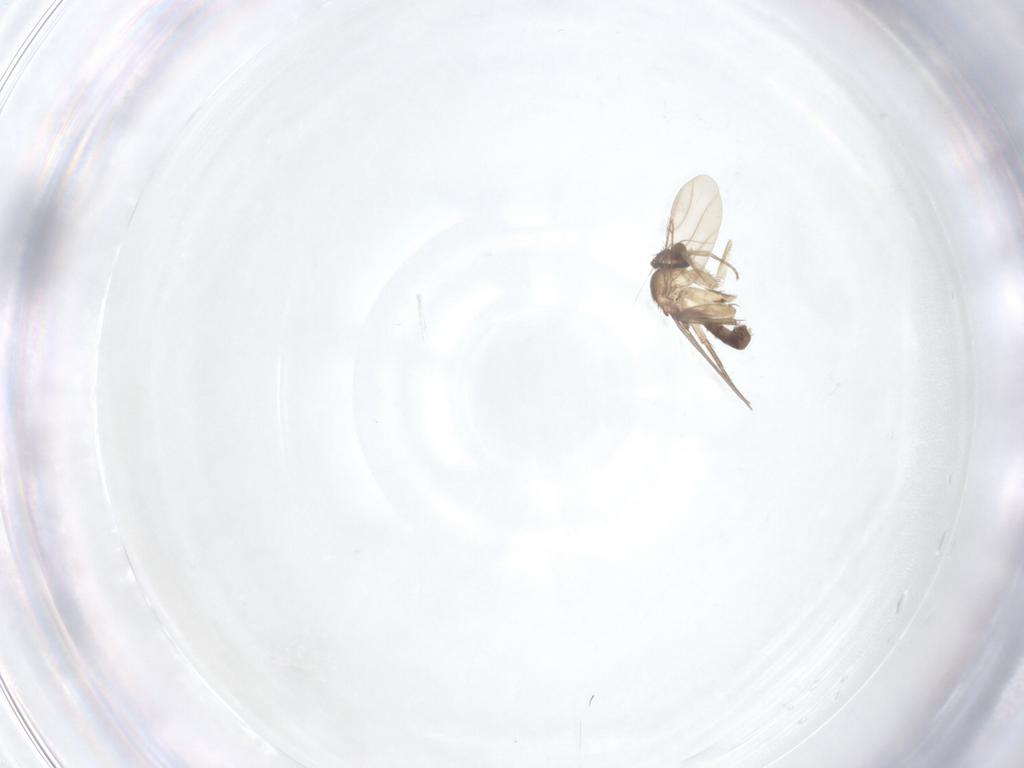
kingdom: Animalia
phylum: Arthropoda
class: Insecta
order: Diptera
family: Phoridae
